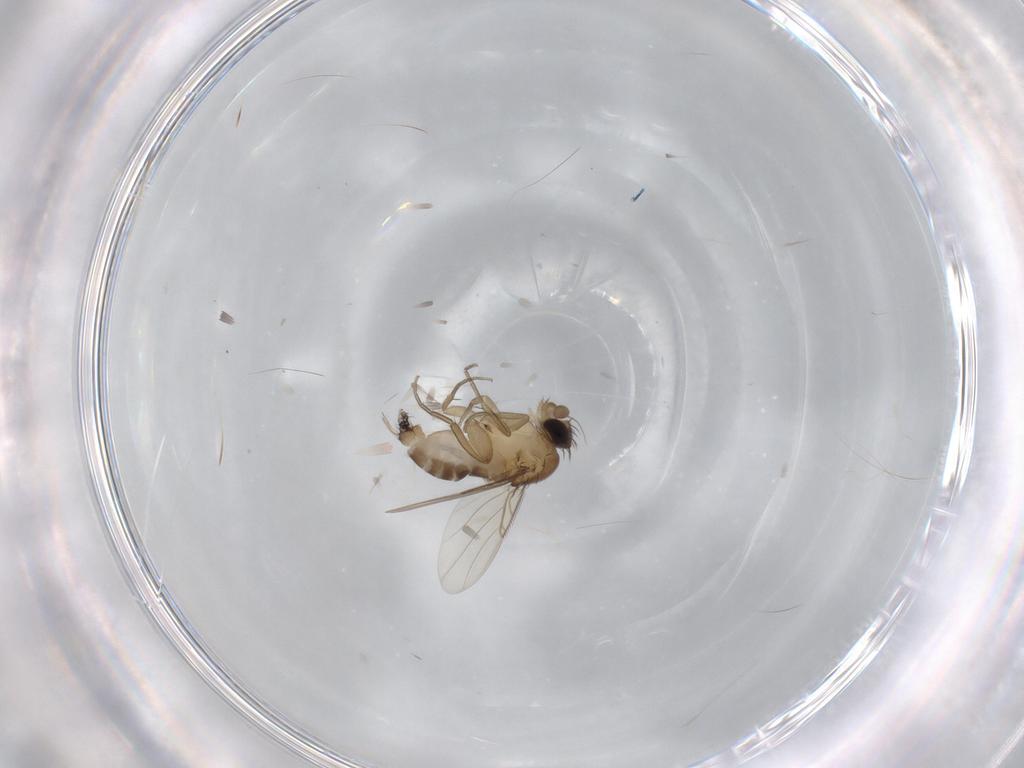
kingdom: Animalia
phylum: Arthropoda
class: Insecta
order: Diptera
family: Phoridae
